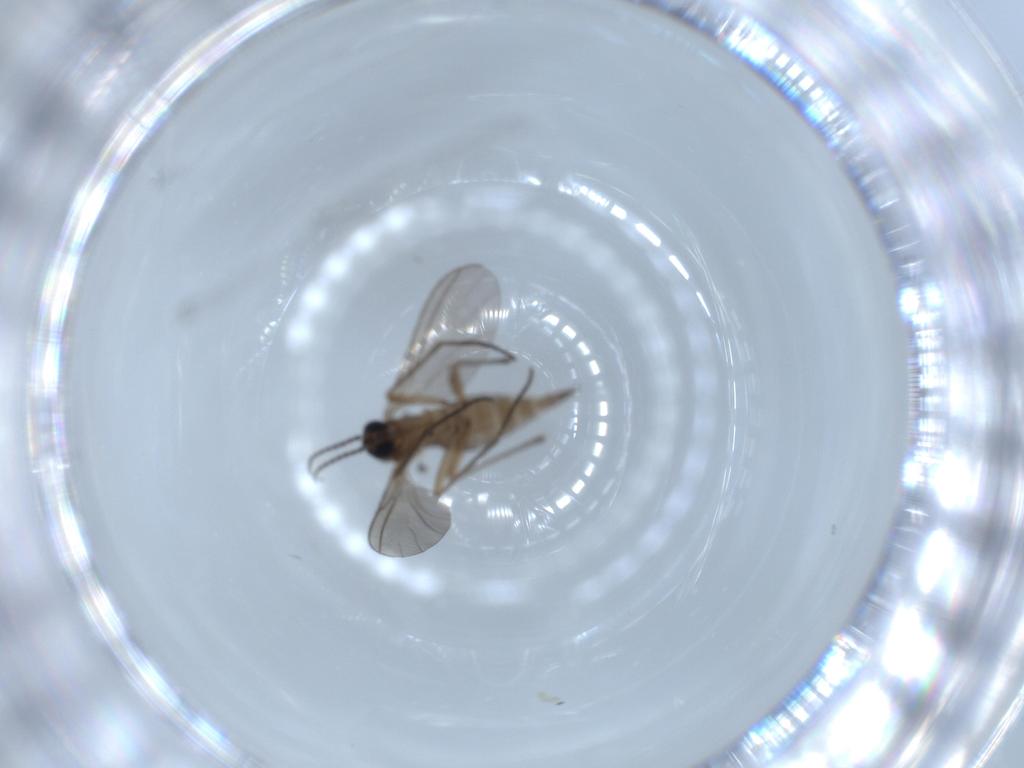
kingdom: Animalia
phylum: Arthropoda
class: Insecta
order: Diptera
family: Sciaridae
